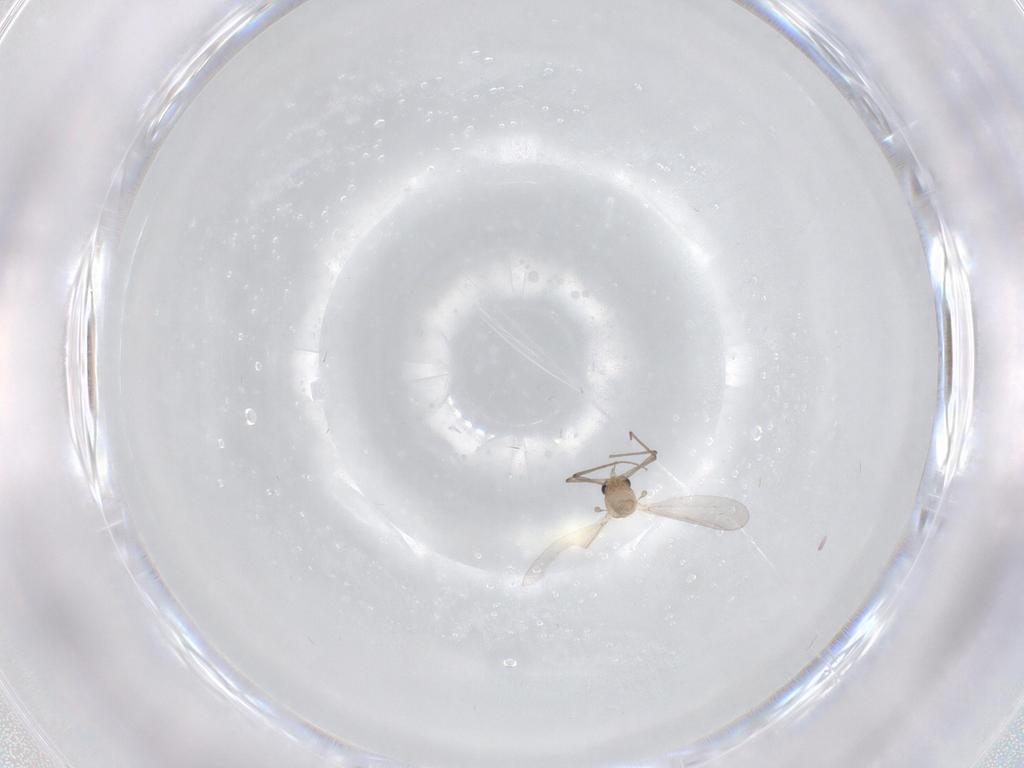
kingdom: Animalia
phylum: Arthropoda
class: Insecta
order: Diptera
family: Chironomidae
